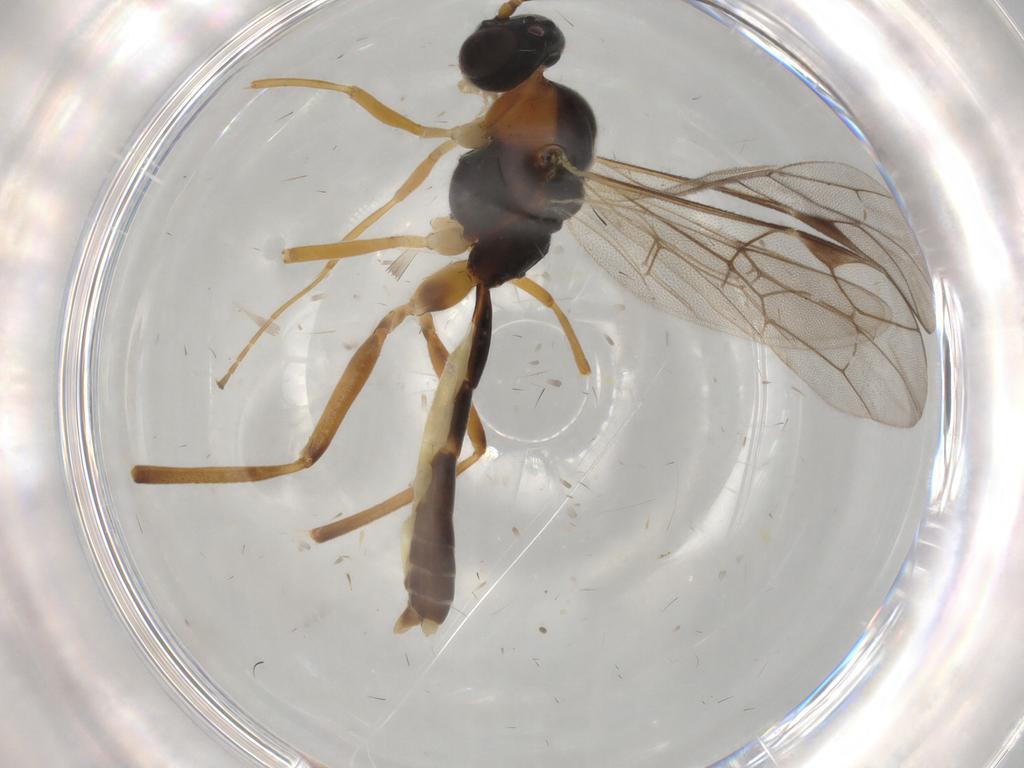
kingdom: Animalia
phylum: Arthropoda
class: Insecta
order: Hymenoptera
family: Ichneumonidae
